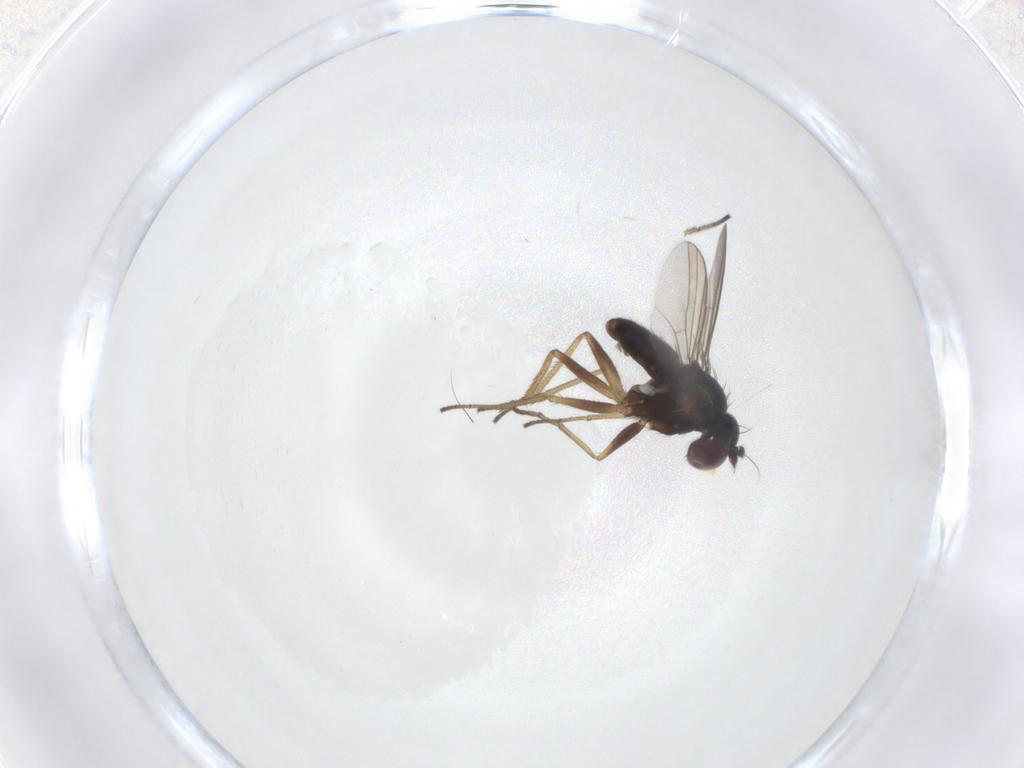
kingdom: Animalia
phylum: Arthropoda
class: Insecta
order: Diptera
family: Dolichopodidae
